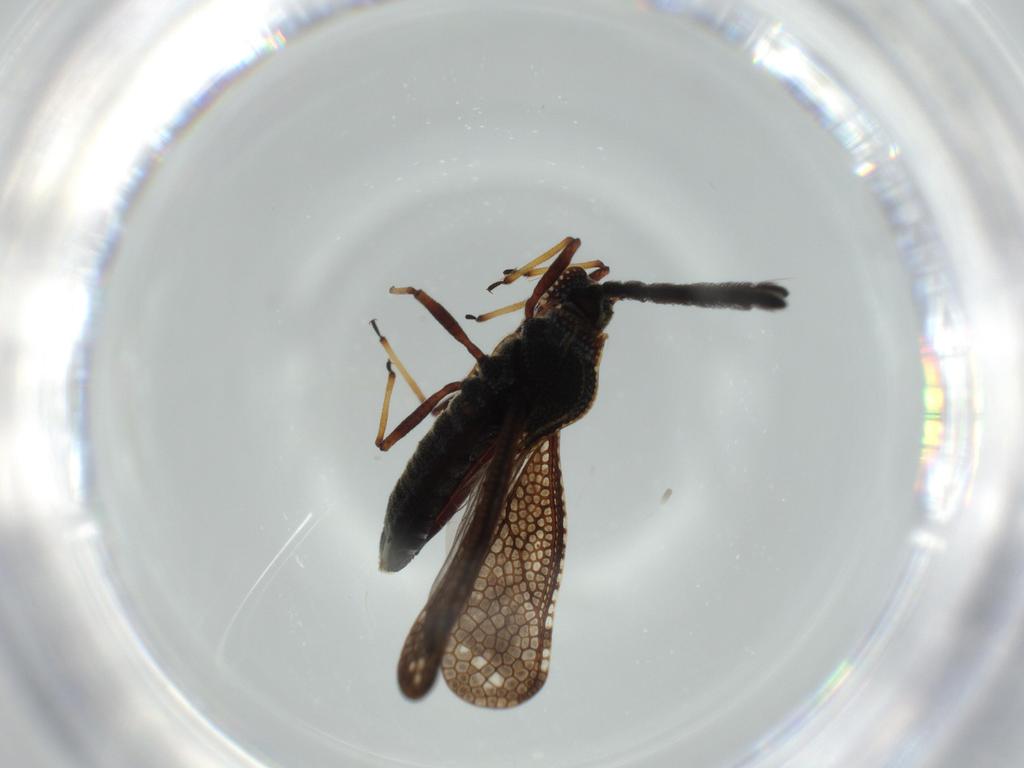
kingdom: Animalia
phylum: Arthropoda
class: Insecta
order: Hemiptera
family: Tingidae
